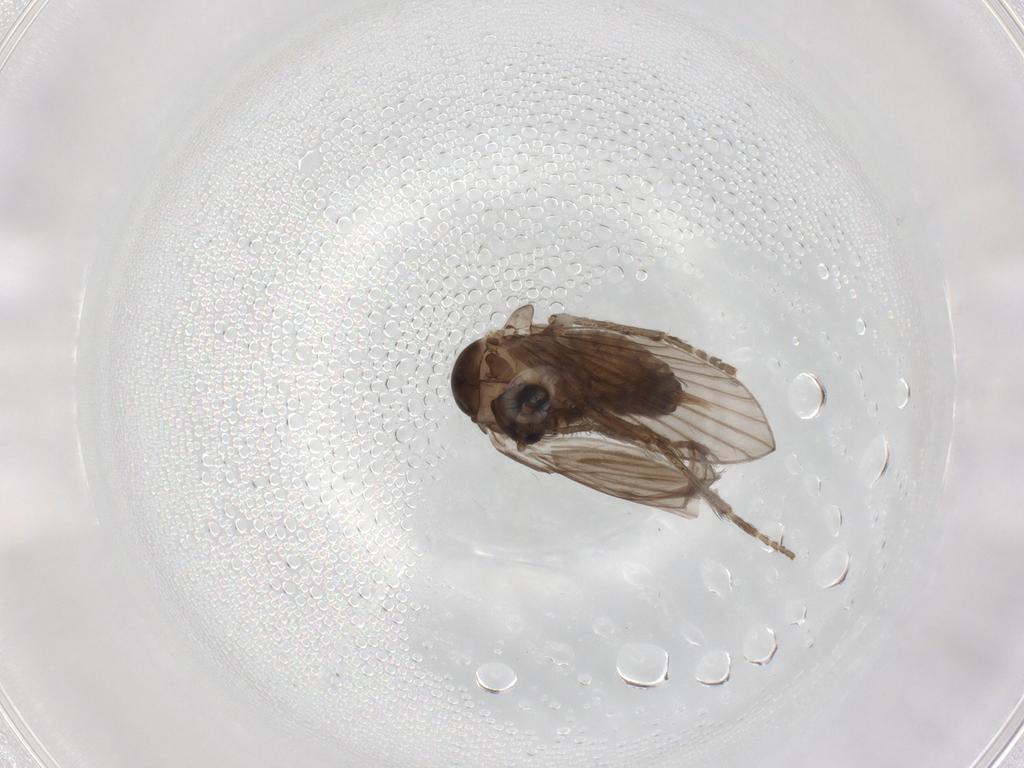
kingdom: Animalia
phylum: Arthropoda
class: Insecta
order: Diptera
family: Psychodidae
